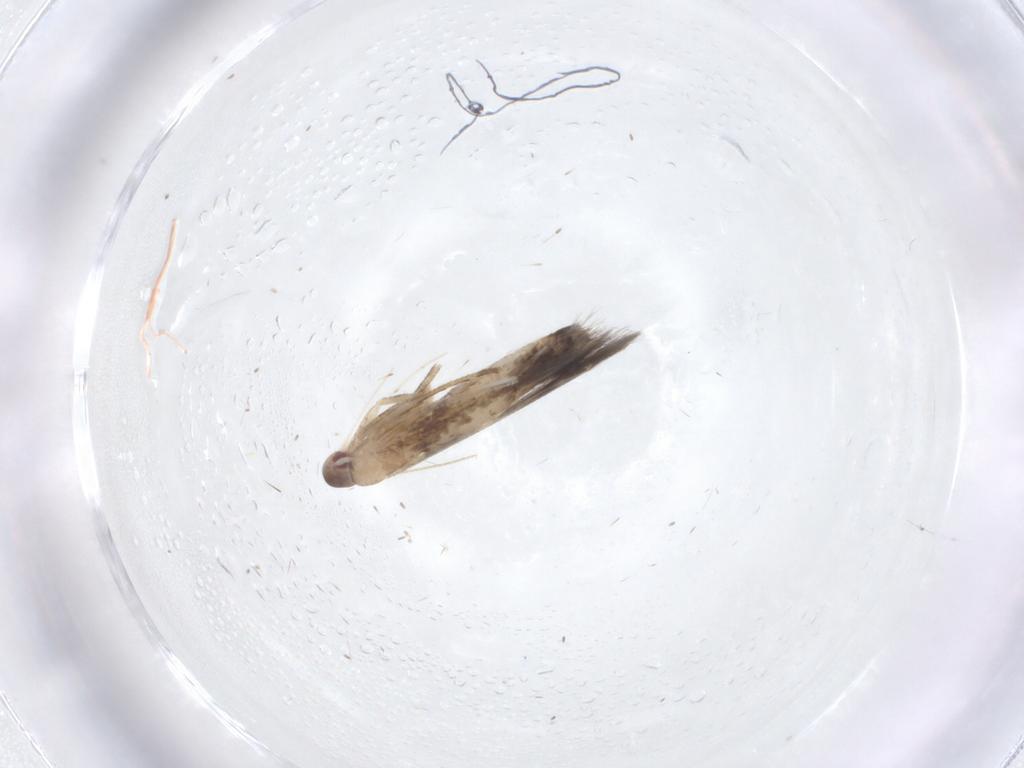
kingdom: Animalia
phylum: Arthropoda
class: Insecta
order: Lepidoptera
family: Cosmopterigidae
